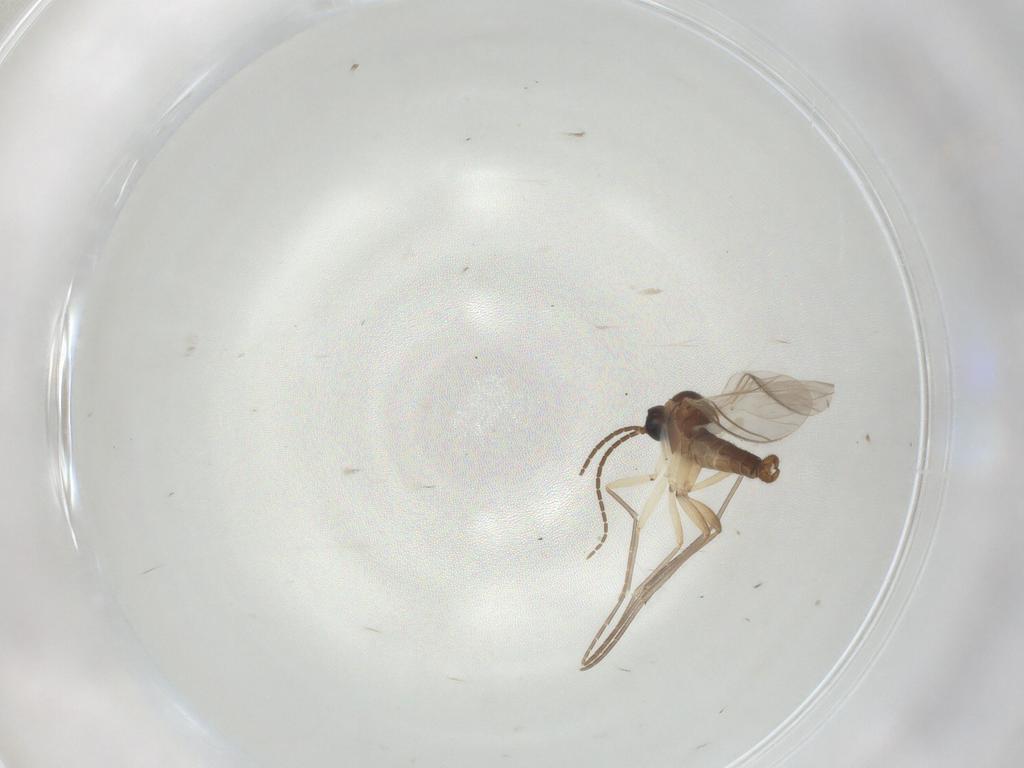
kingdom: Animalia
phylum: Arthropoda
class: Insecta
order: Diptera
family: Sciaridae
